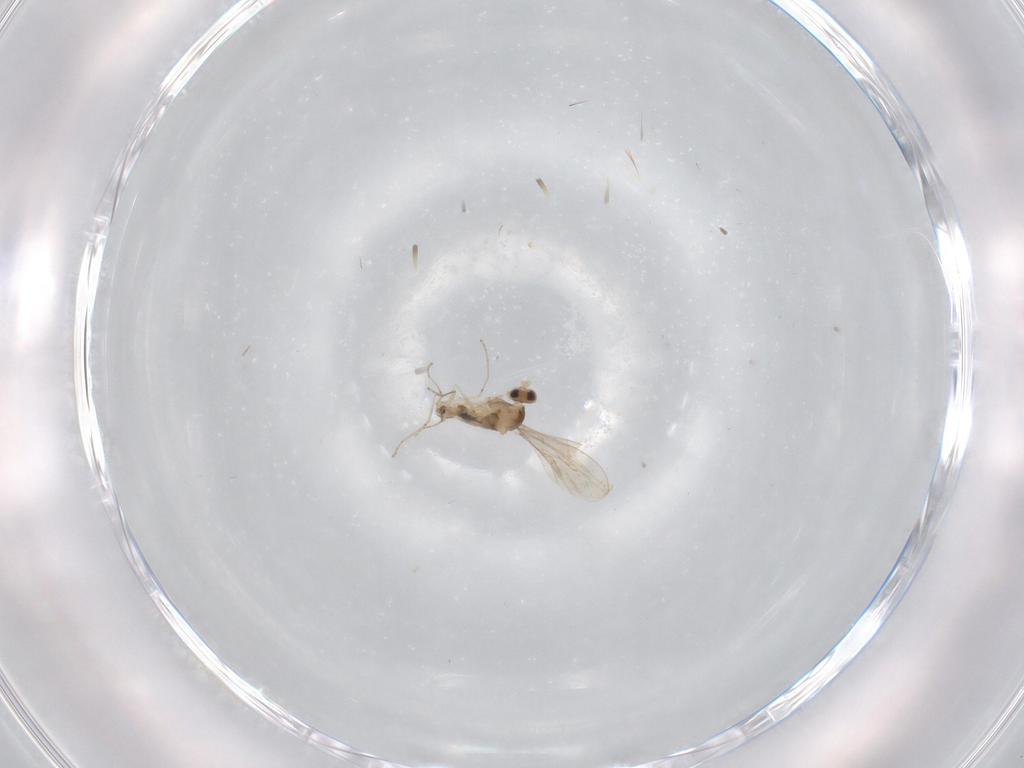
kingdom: Animalia
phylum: Arthropoda
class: Insecta
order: Diptera
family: Cecidomyiidae
